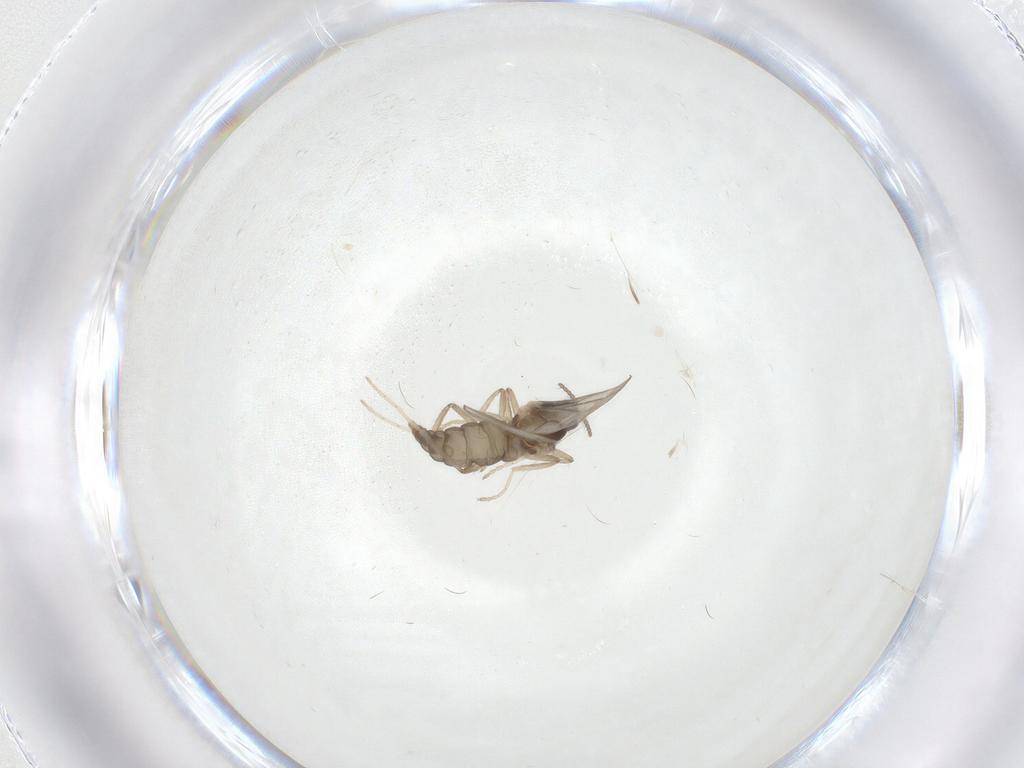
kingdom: Animalia
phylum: Arthropoda
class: Insecta
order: Diptera
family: Cecidomyiidae
